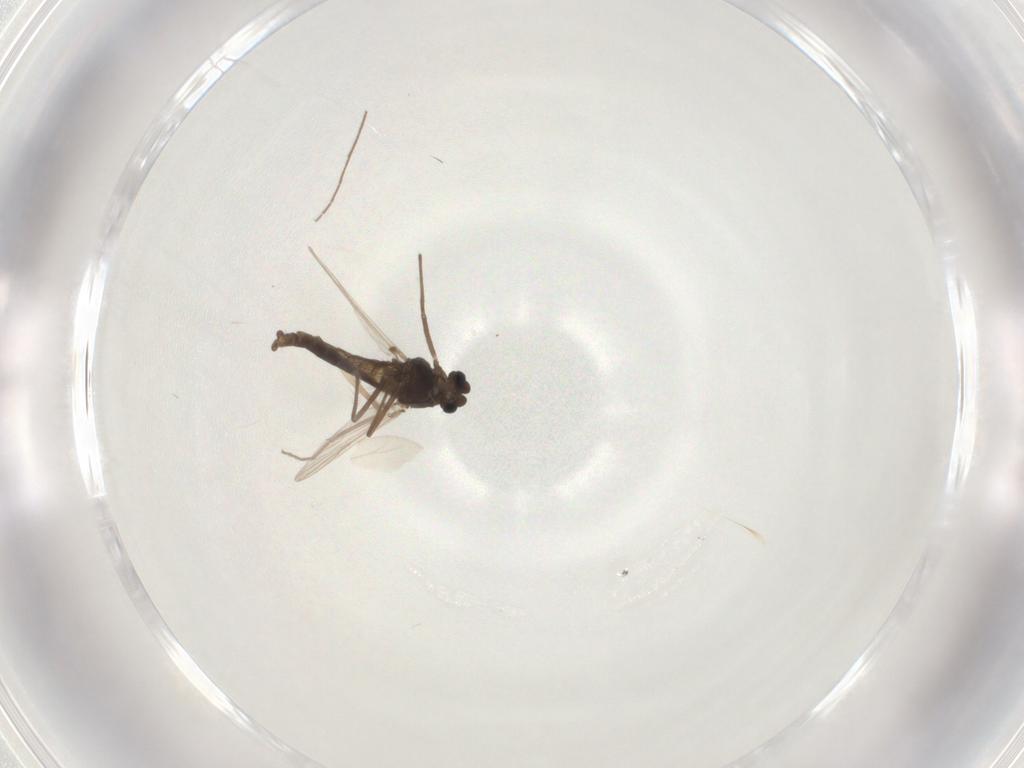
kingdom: Animalia
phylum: Arthropoda
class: Insecta
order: Diptera
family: Chironomidae
